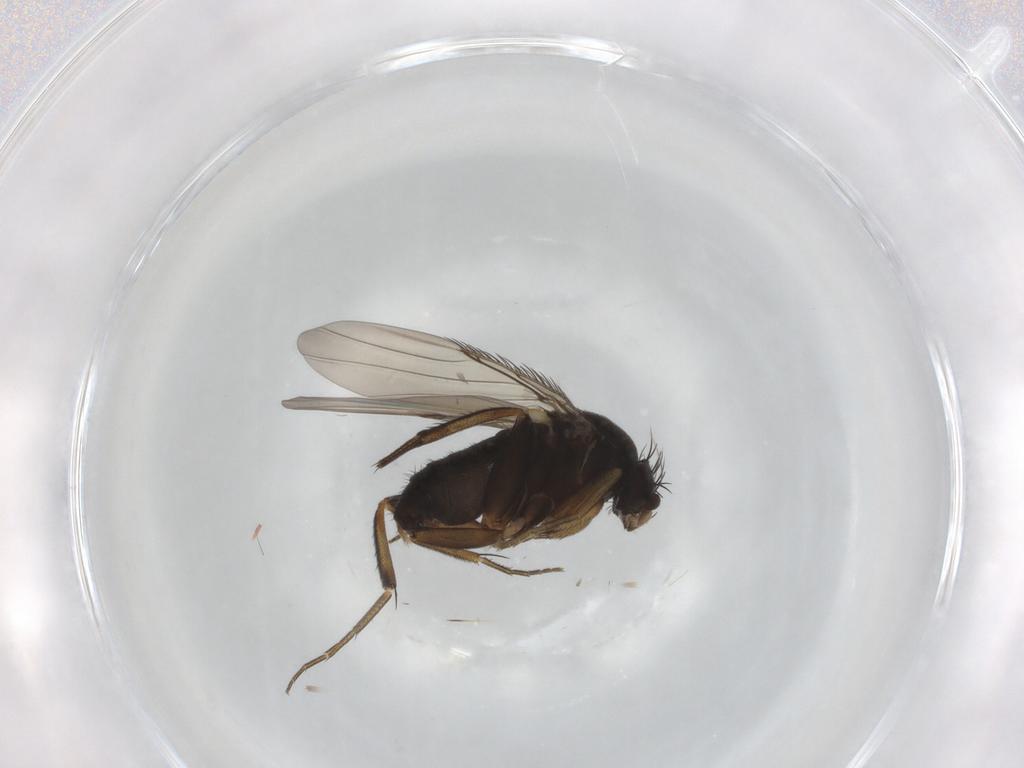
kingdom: Animalia
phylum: Arthropoda
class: Insecta
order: Diptera
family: Phoridae
